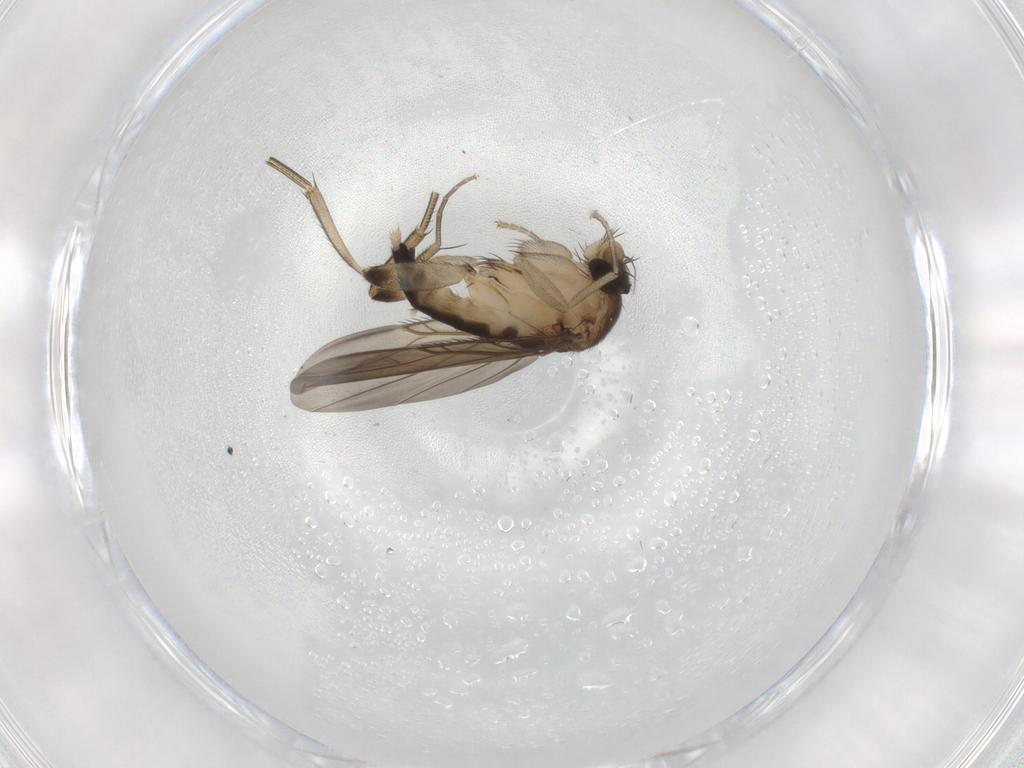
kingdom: Animalia
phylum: Arthropoda
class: Insecta
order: Diptera
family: Phoridae
